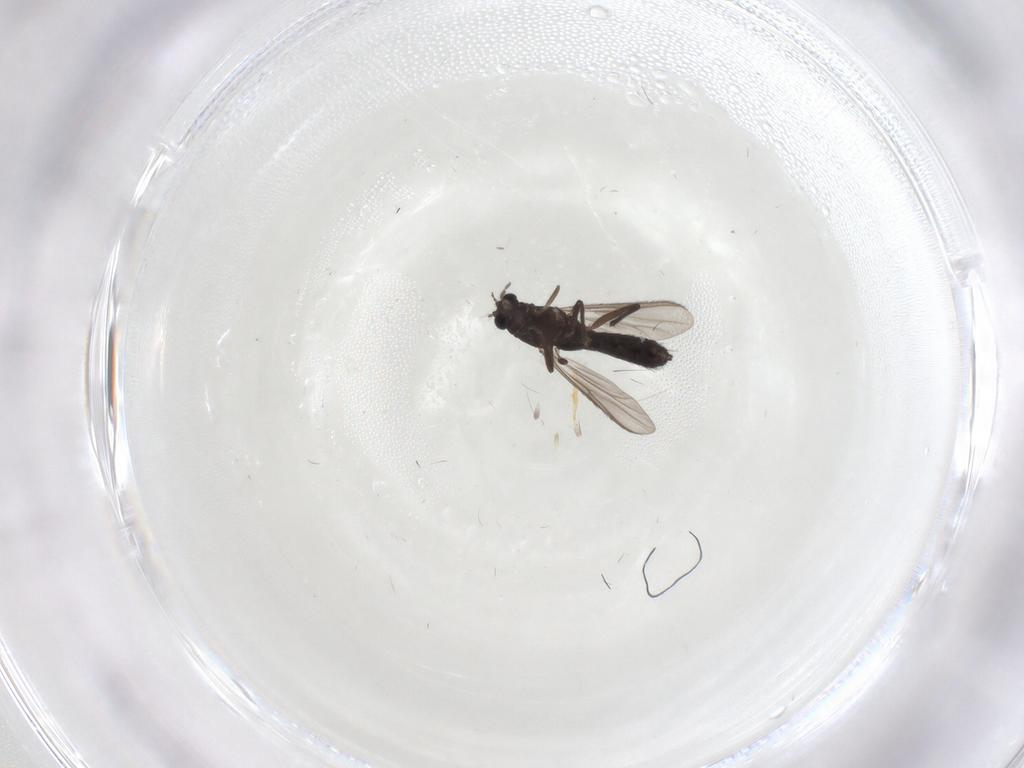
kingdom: Animalia
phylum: Arthropoda
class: Insecta
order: Diptera
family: Chironomidae
